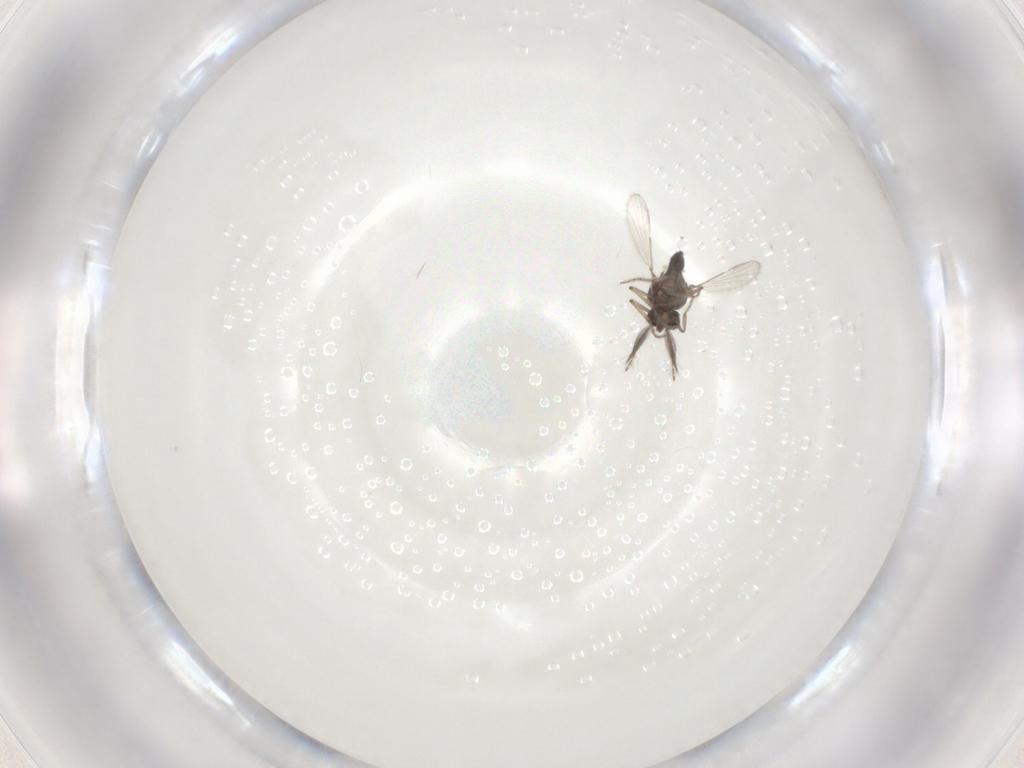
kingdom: Animalia
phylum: Arthropoda
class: Insecta
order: Diptera
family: Ceratopogonidae
